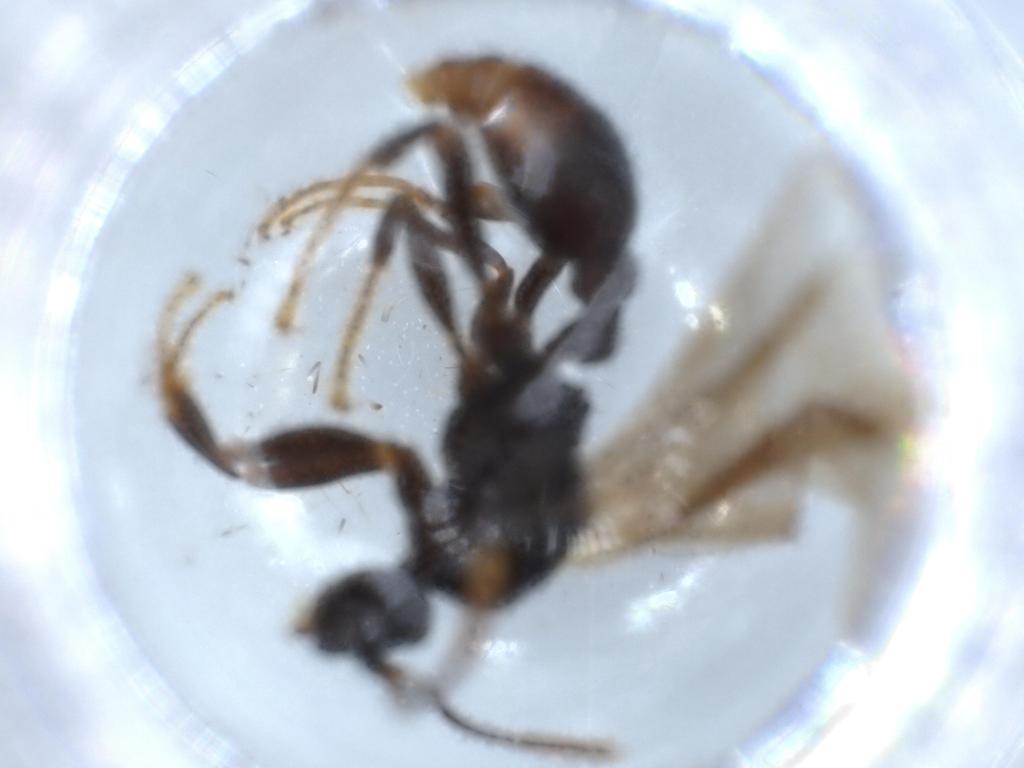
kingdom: Animalia
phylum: Arthropoda
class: Insecta
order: Hymenoptera
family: Formicidae
